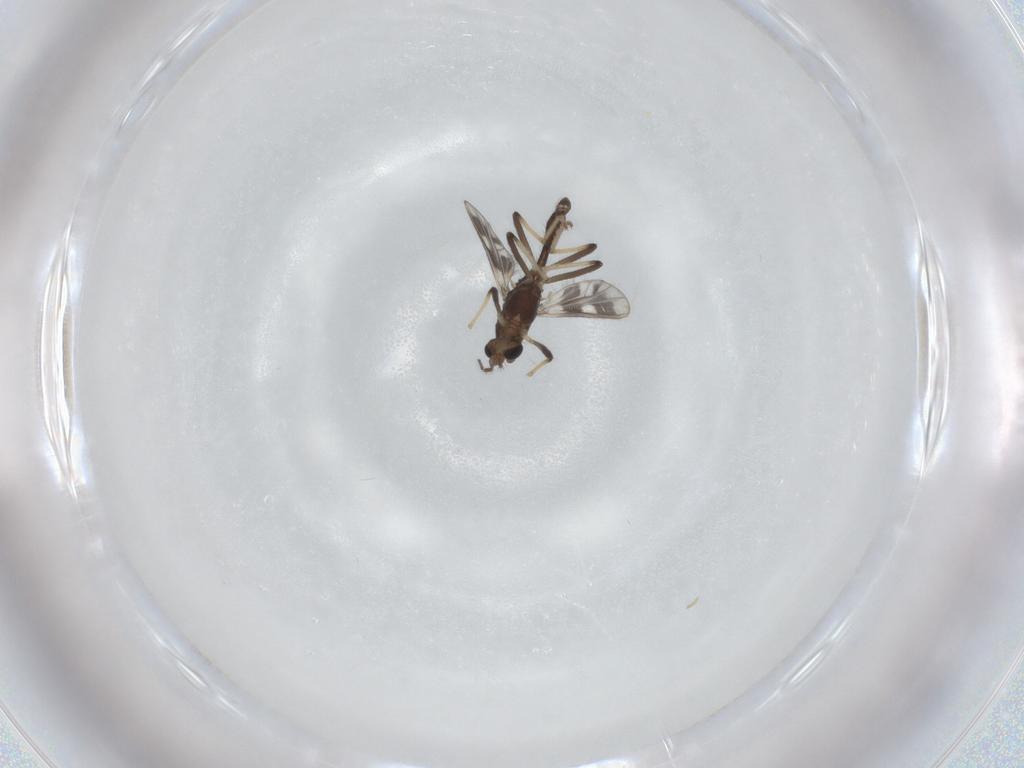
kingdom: Animalia
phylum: Arthropoda
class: Insecta
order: Diptera
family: Chironomidae
